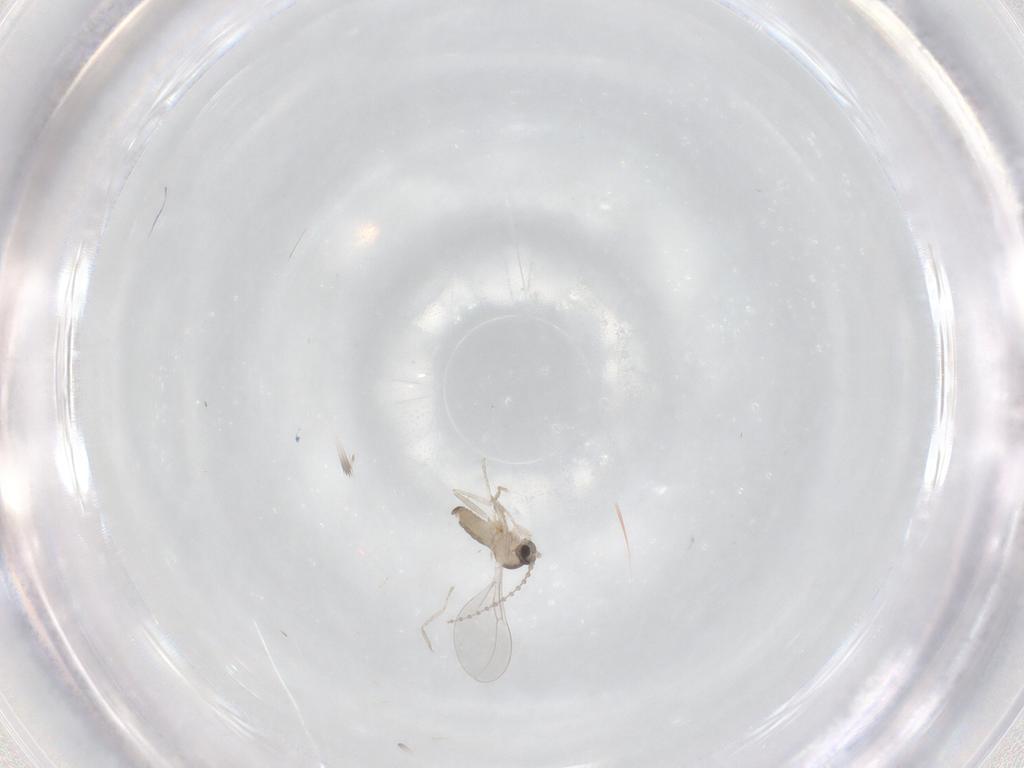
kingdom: Animalia
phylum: Arthropoda
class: Insecta
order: Diptera
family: Cecidomyiidae
